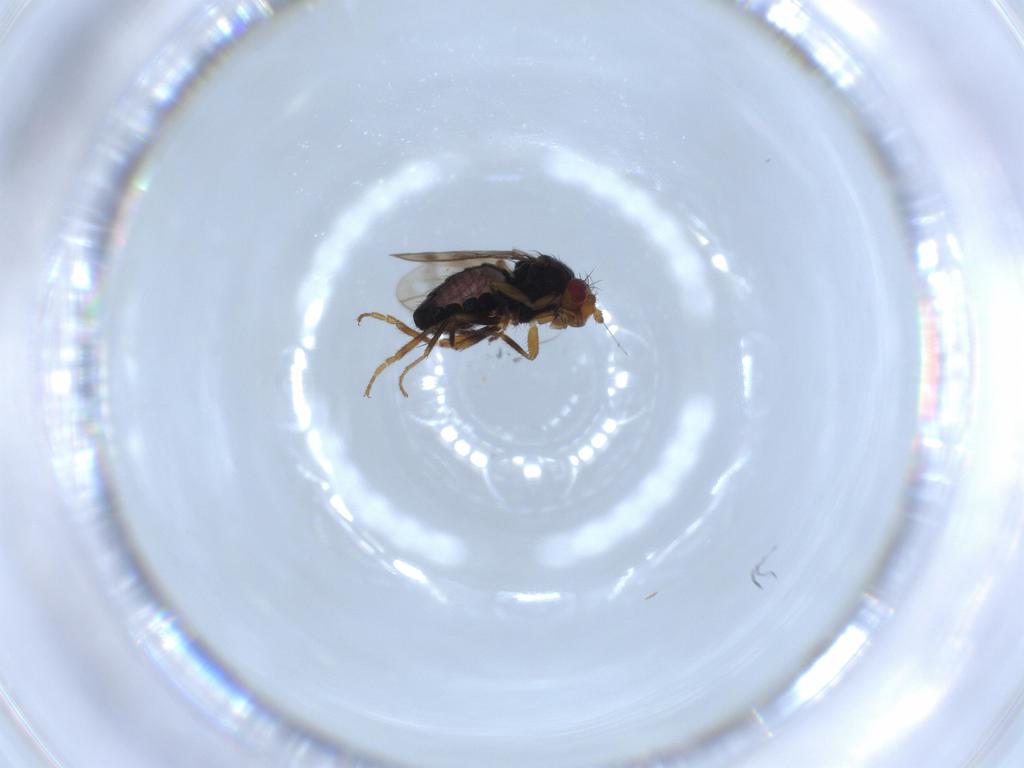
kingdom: Animalia
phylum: Arthropoda
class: Insecta
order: Diptera
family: Sphaeroceridae
